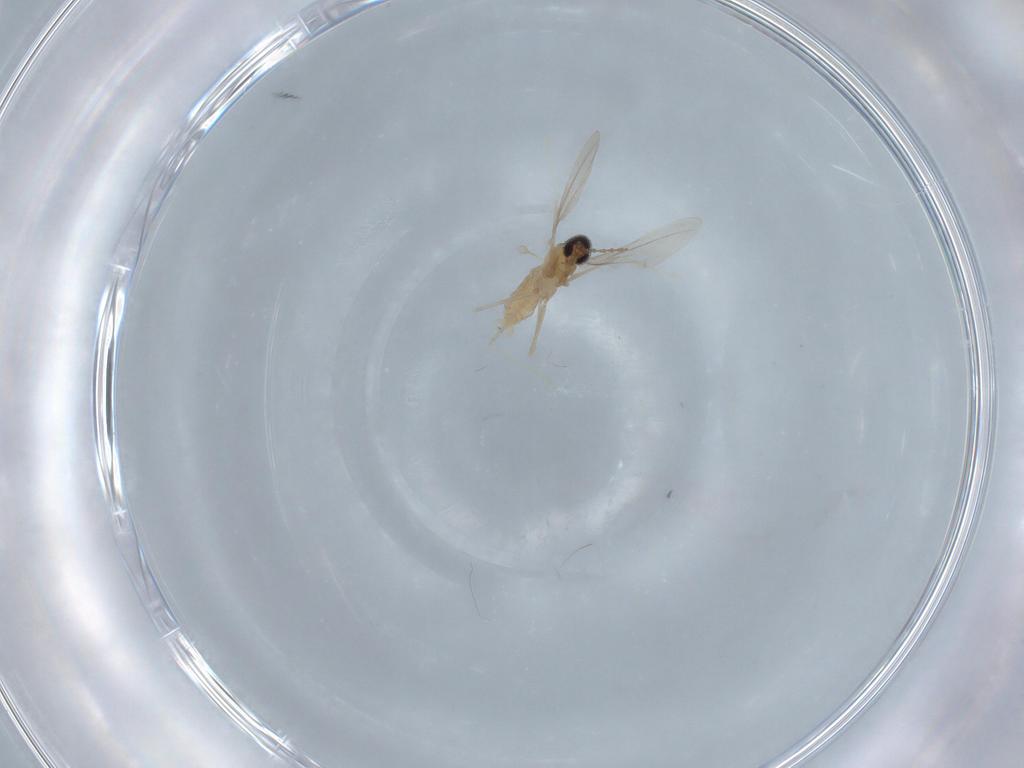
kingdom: Animalia
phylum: Arthropoda
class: Insecta
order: Diptera
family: Cecidomyiidae
